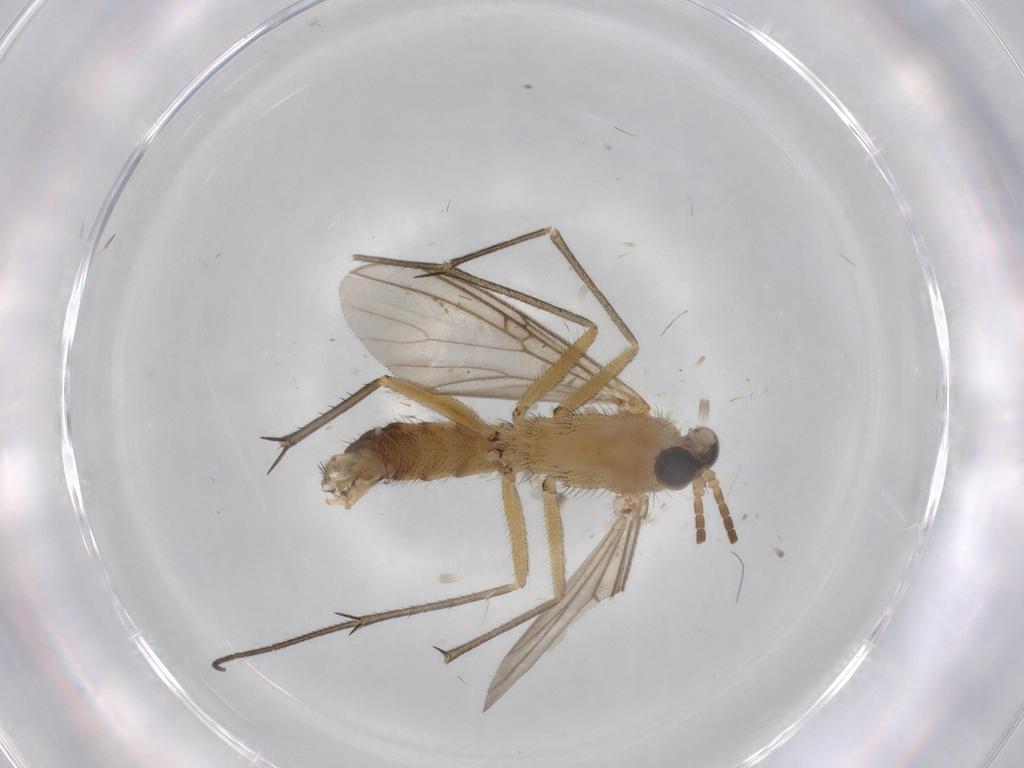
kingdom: Animalia
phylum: Arthropoda
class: Insecta
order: Diptera
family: Mycetophilidae
